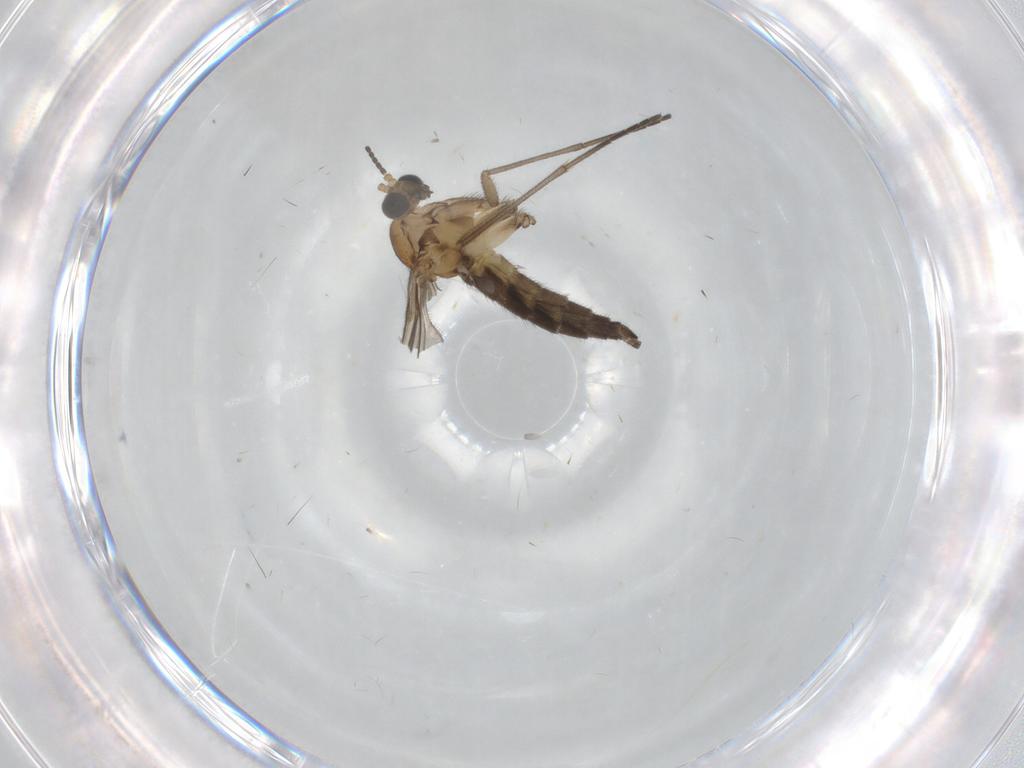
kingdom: Animalia
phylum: Arthropoda
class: Insecta
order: Diptera
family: Sciaridae
